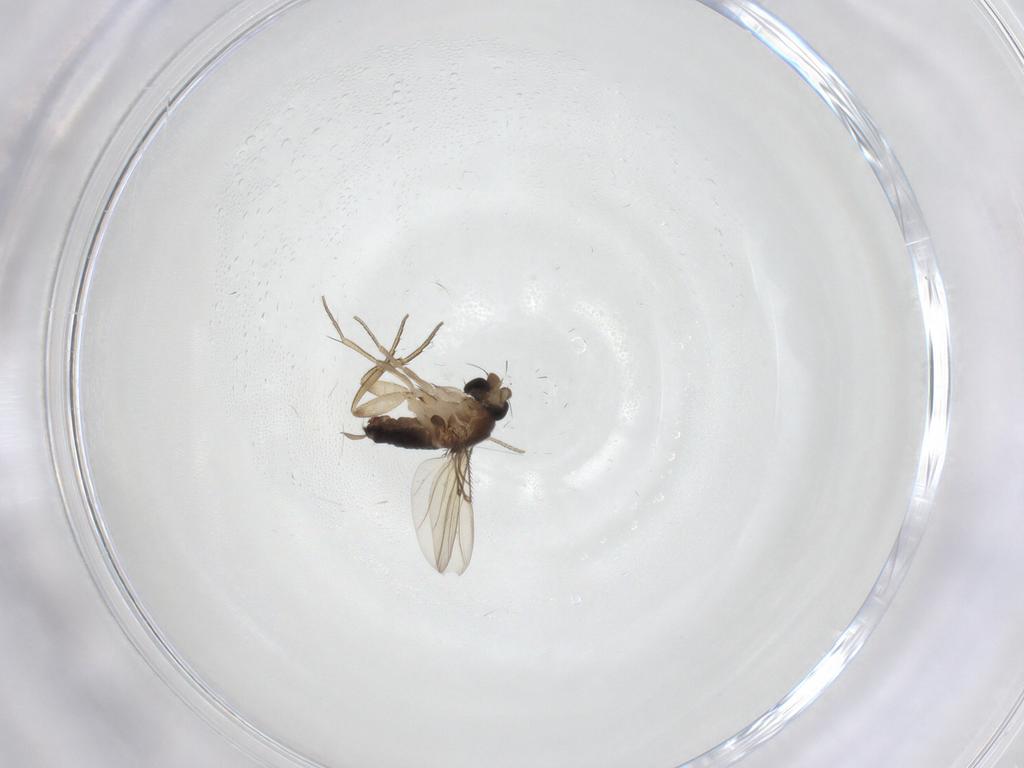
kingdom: Animalia
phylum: Arthropoda
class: Insecta
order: Diptera
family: Phoridae
